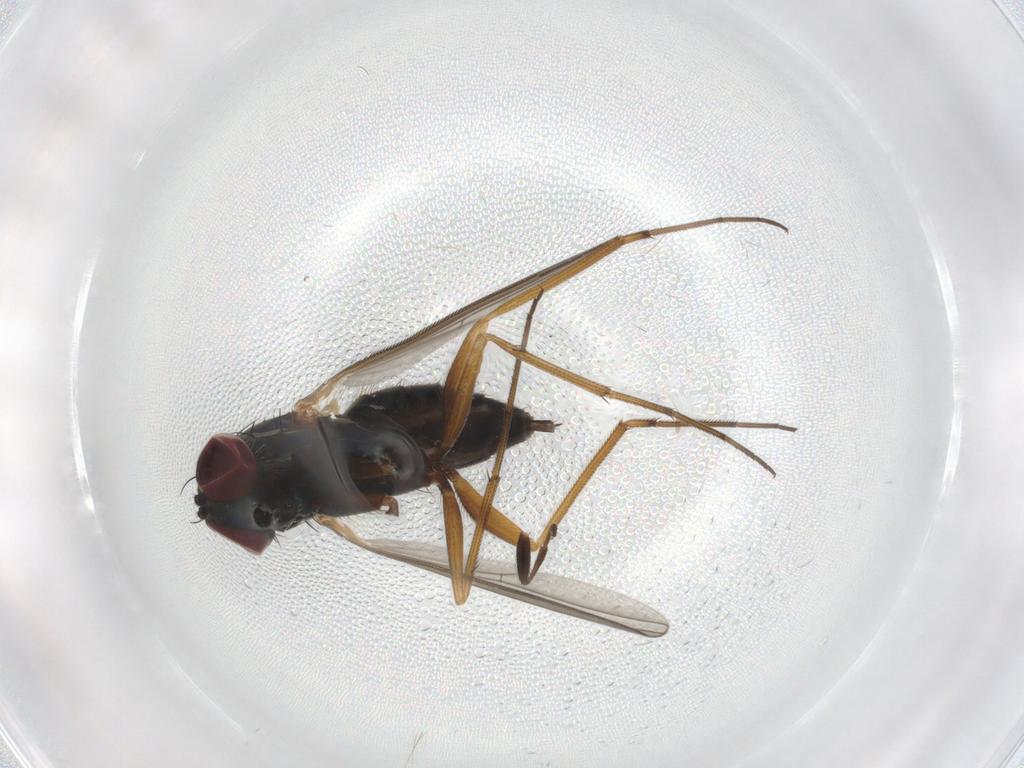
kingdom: Animalia
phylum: Arthropoda
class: Insecta
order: Diptera
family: Dolichopodidae
